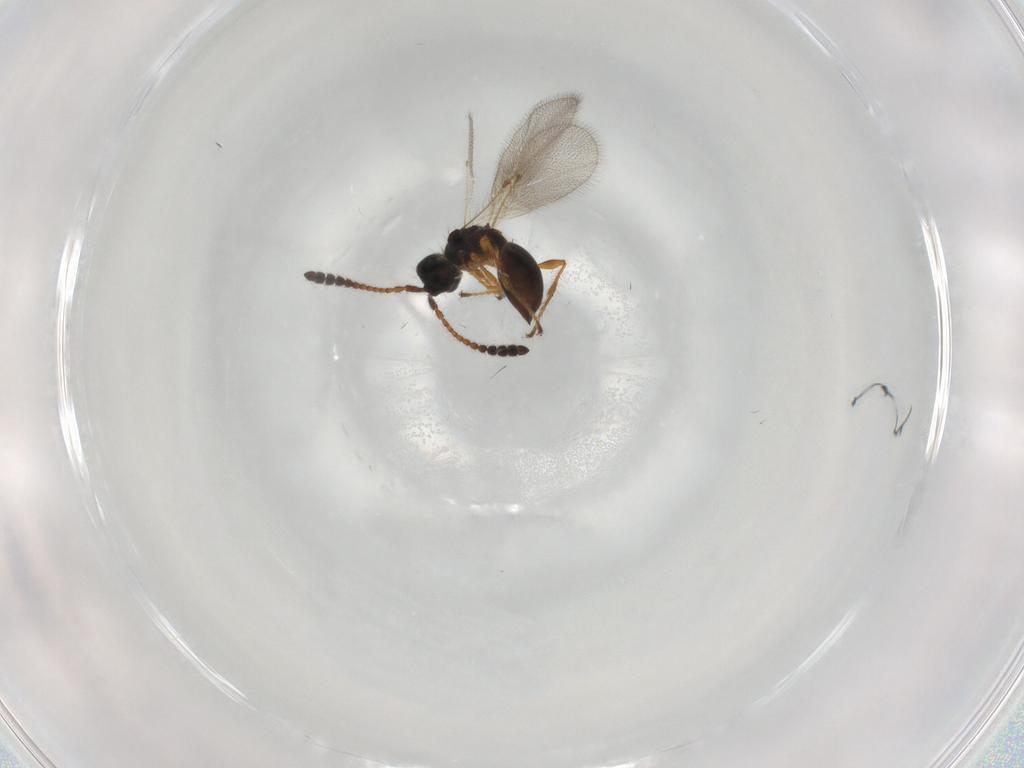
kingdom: Animalia
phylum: Arthropoda
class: Insecta
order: Hymenoptera
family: Diapriidae
